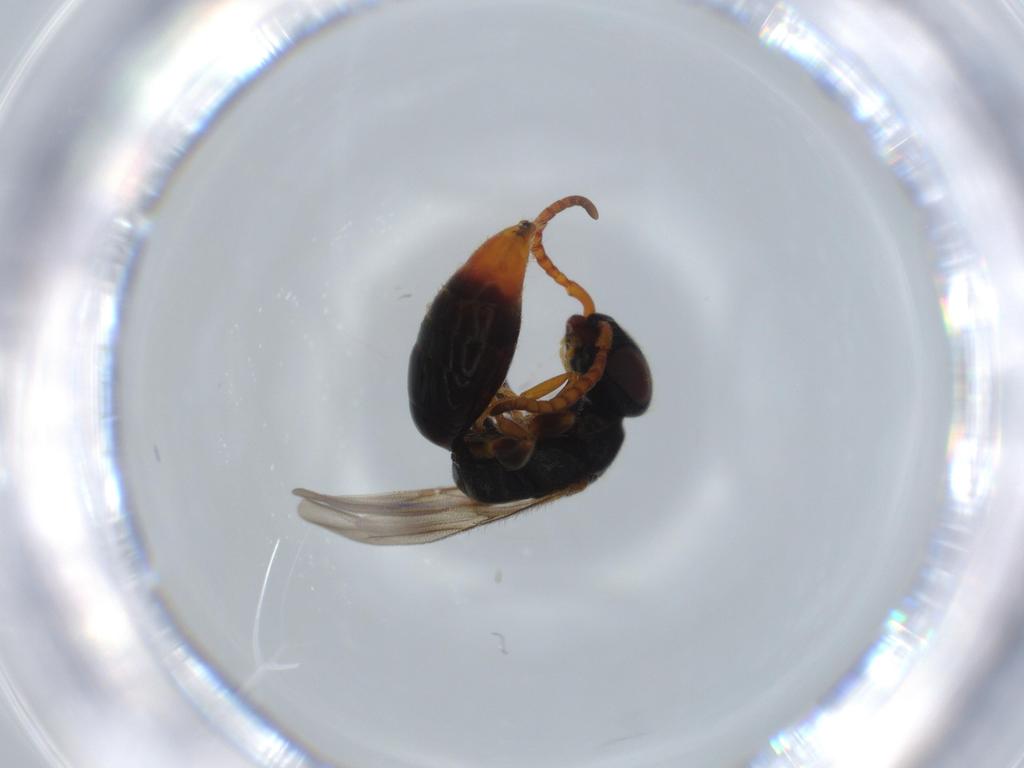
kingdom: Animalia
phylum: Arthropoda
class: Insecta
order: Hymenoptera
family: Bethylidae
